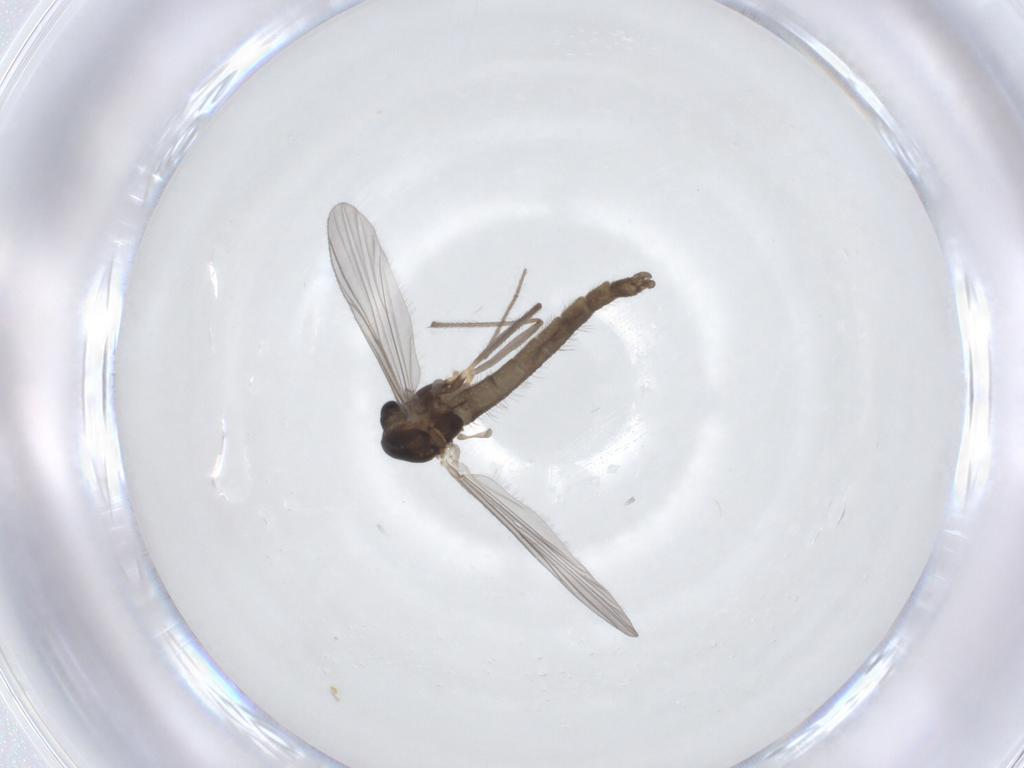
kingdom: Animalia
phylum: Arthropoda
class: Insecta
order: Diptera
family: Chironomidae
